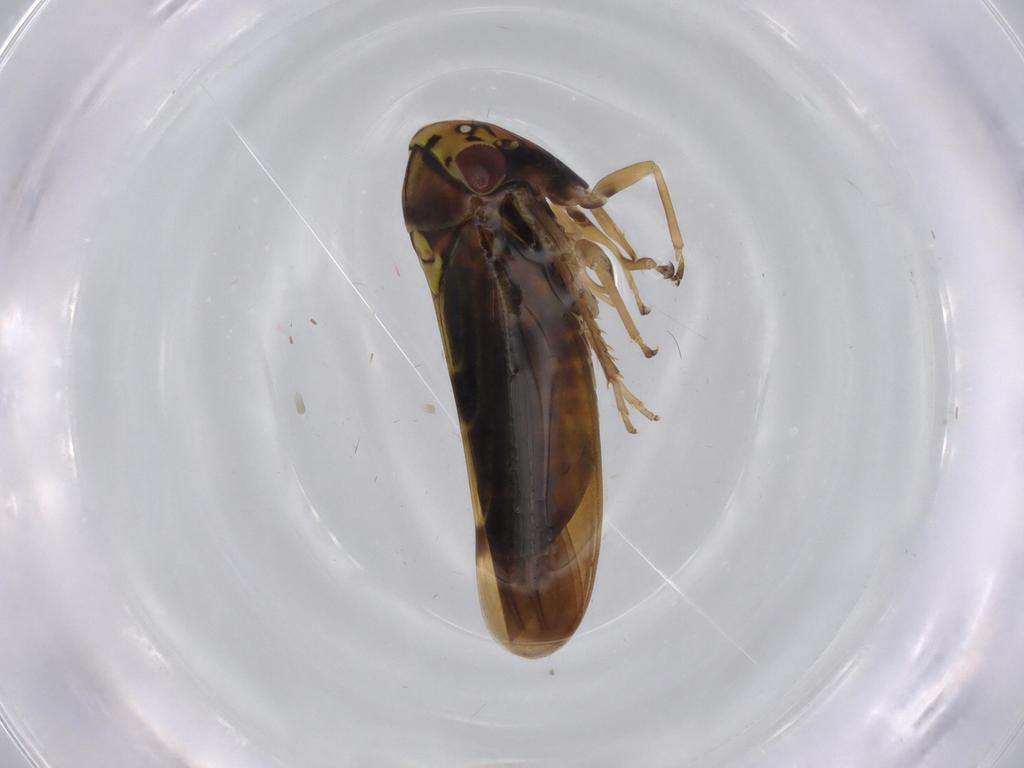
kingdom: Animalia
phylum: Arthropoda
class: Insecta
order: Hemiptera
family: Cicadellidae
